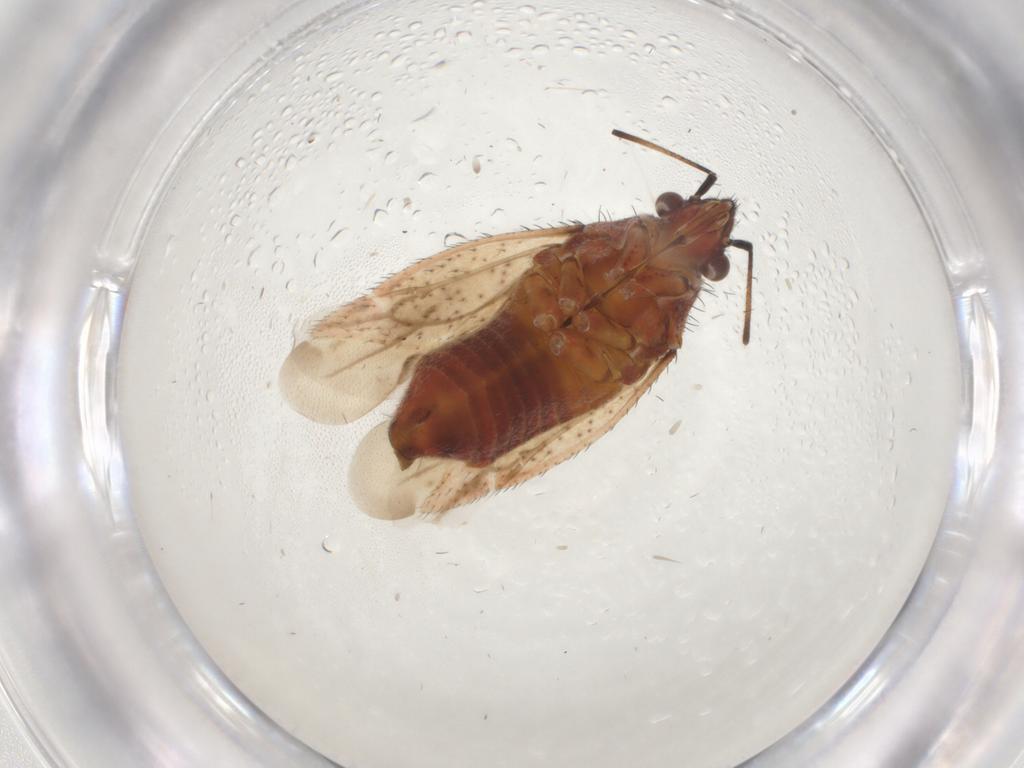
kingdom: Animalia
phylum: Arthropoda
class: Insecta
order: Hemiptera
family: Miridae
